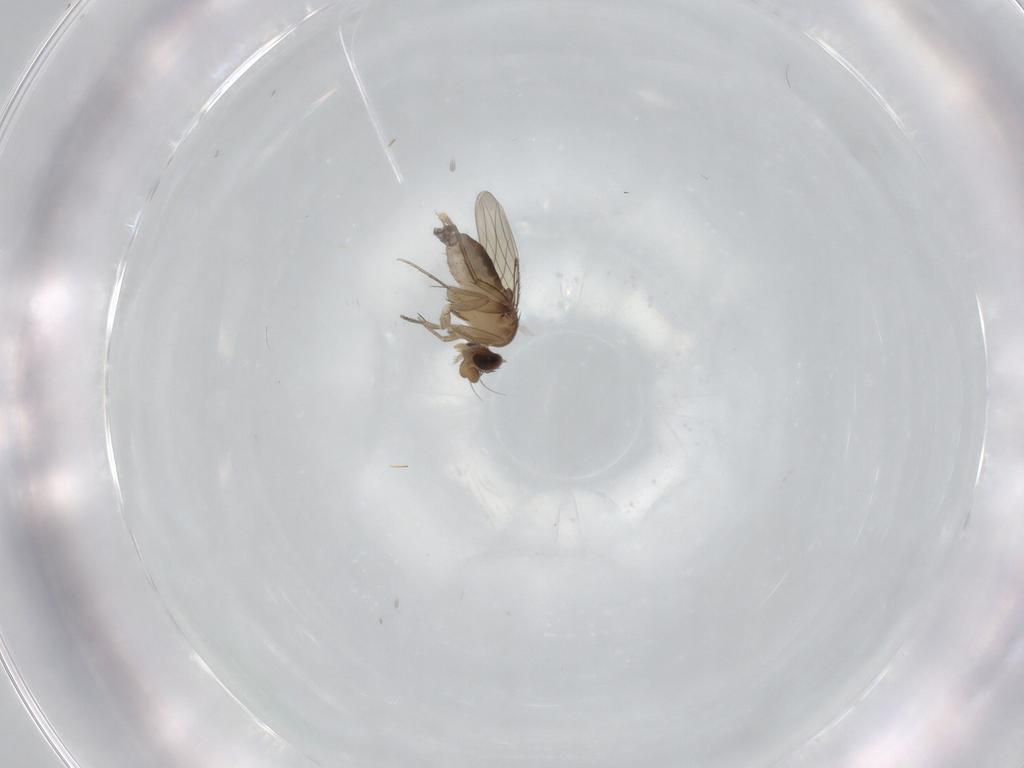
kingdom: Animalia
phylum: Arthropoda
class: Insecta
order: Diptera
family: Phoridae
